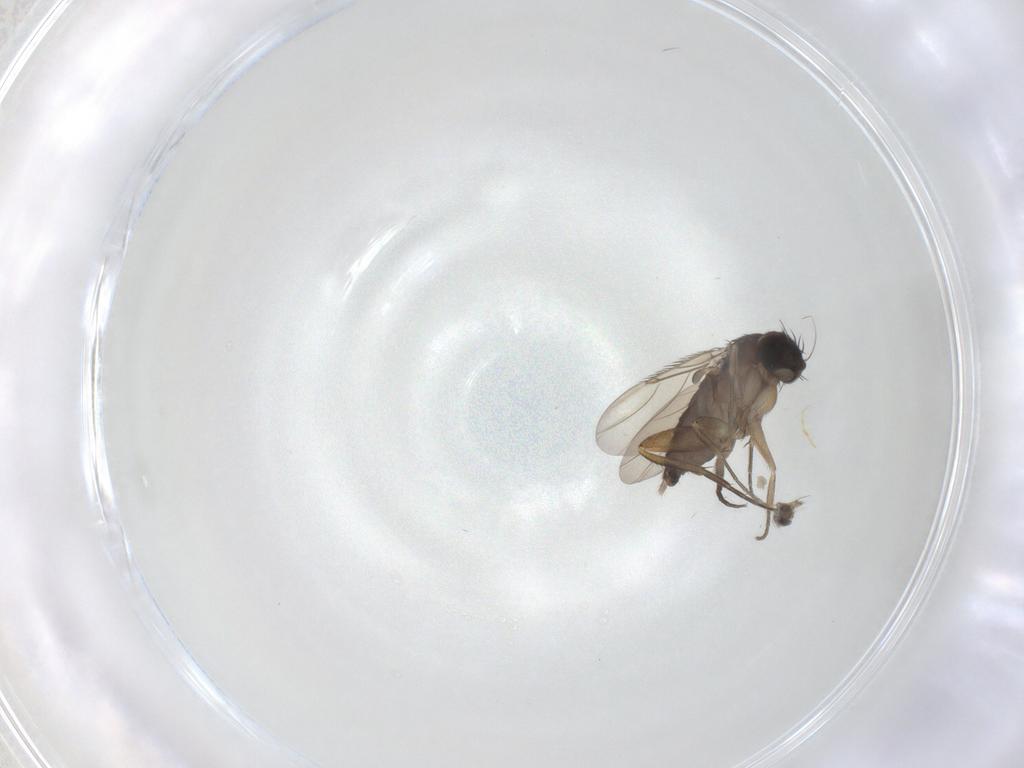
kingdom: Animalia
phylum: Arthropoda
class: Insecta
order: Diptera
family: Phoridae
